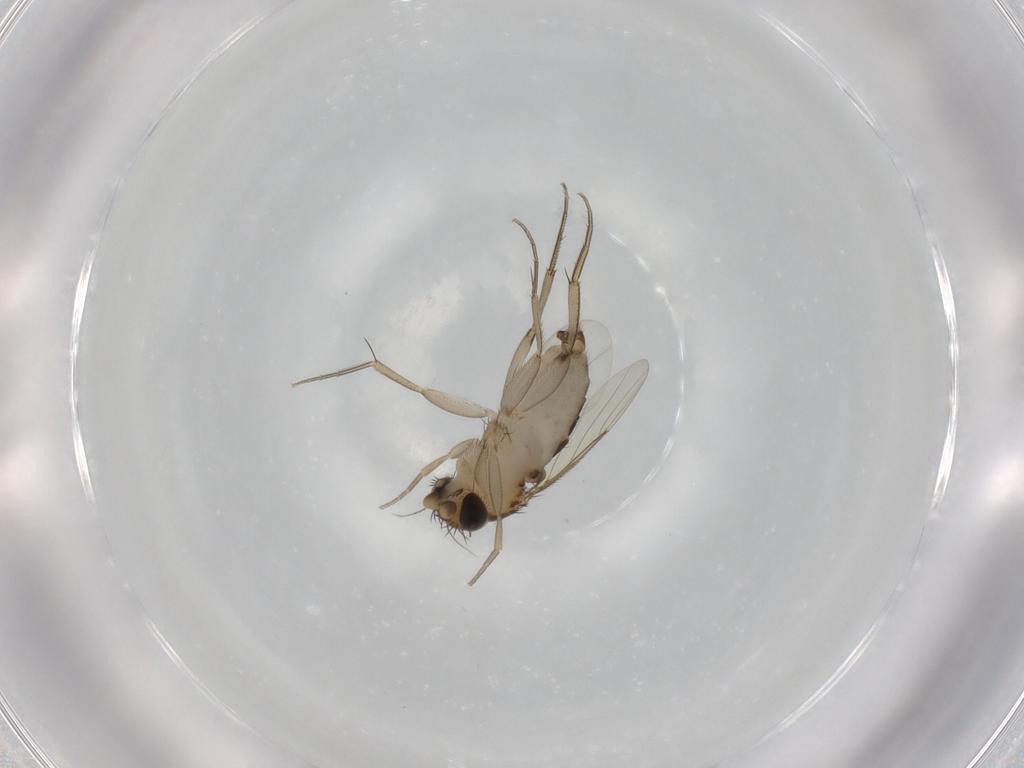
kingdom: Animalia
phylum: Arthropoda
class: Insecta
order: Diptera
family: Phoridae
